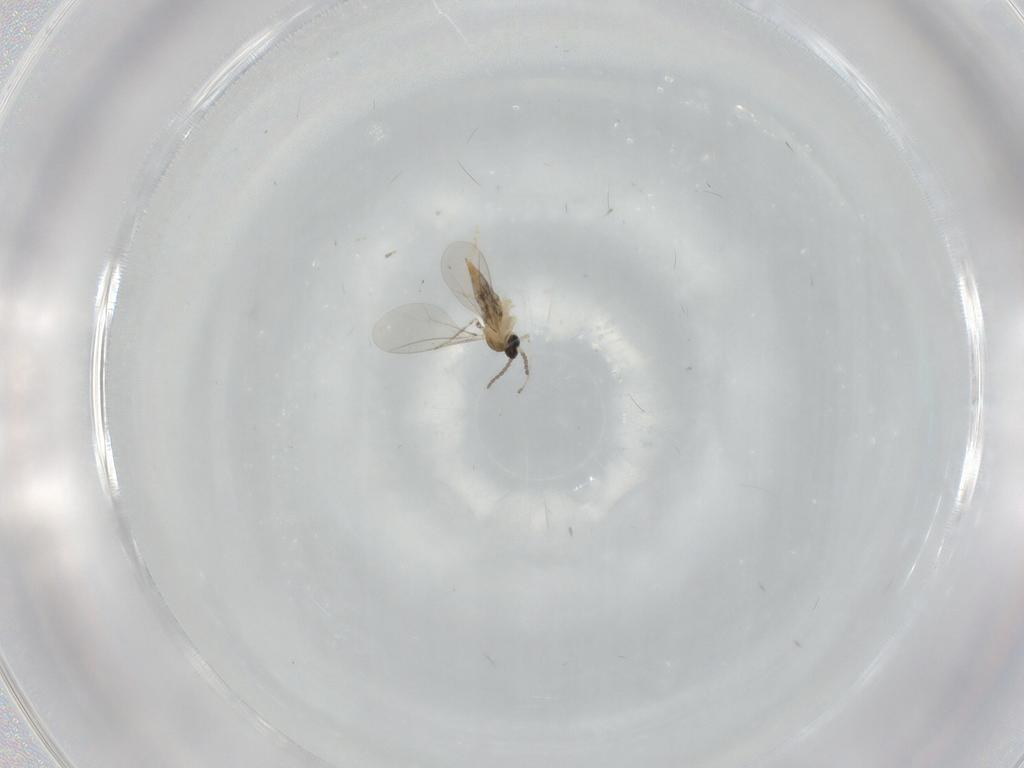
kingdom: Animalia
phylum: Arthropoda
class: Insecta
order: Diptera
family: Cecidomyiidae
